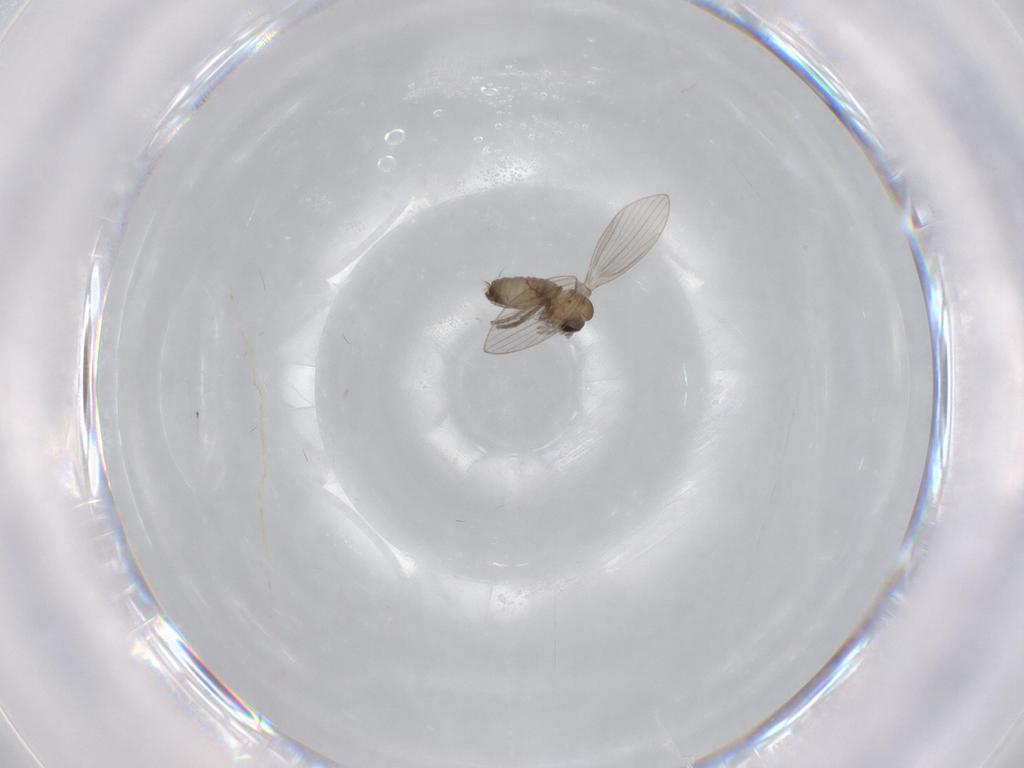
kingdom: Animalia
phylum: Arthropoda
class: Insecta
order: Diptera
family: Psychodidae
